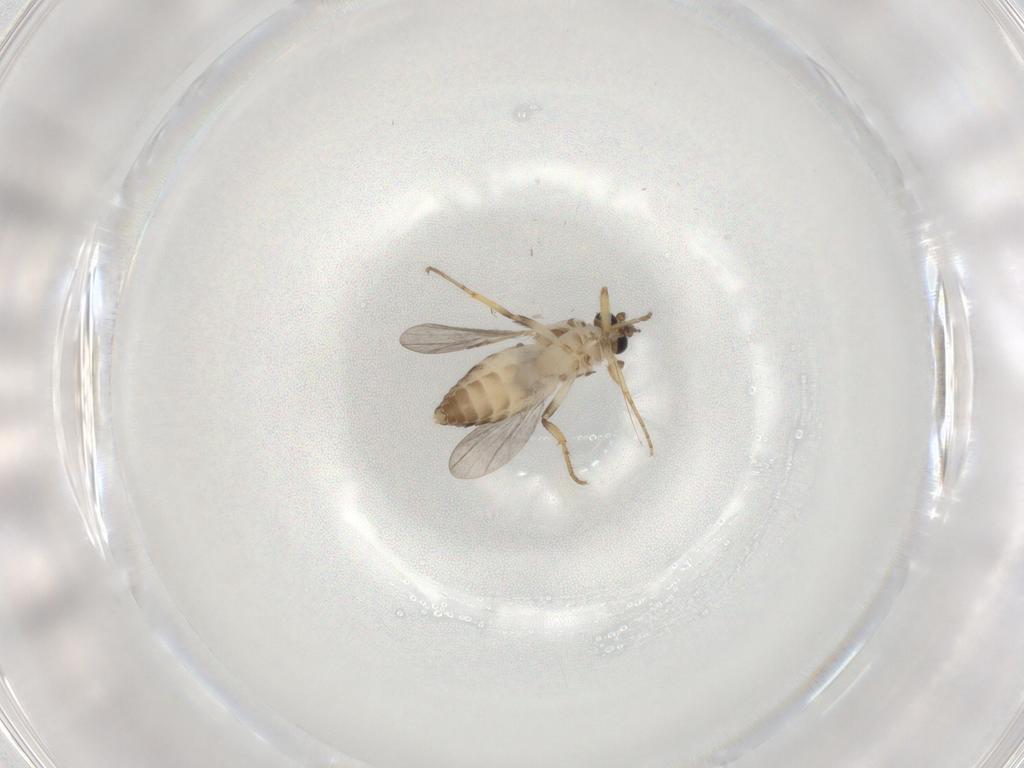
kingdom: Animalia
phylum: Arthropoda
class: Insecta
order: Diptera
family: Ceratopogonidae
